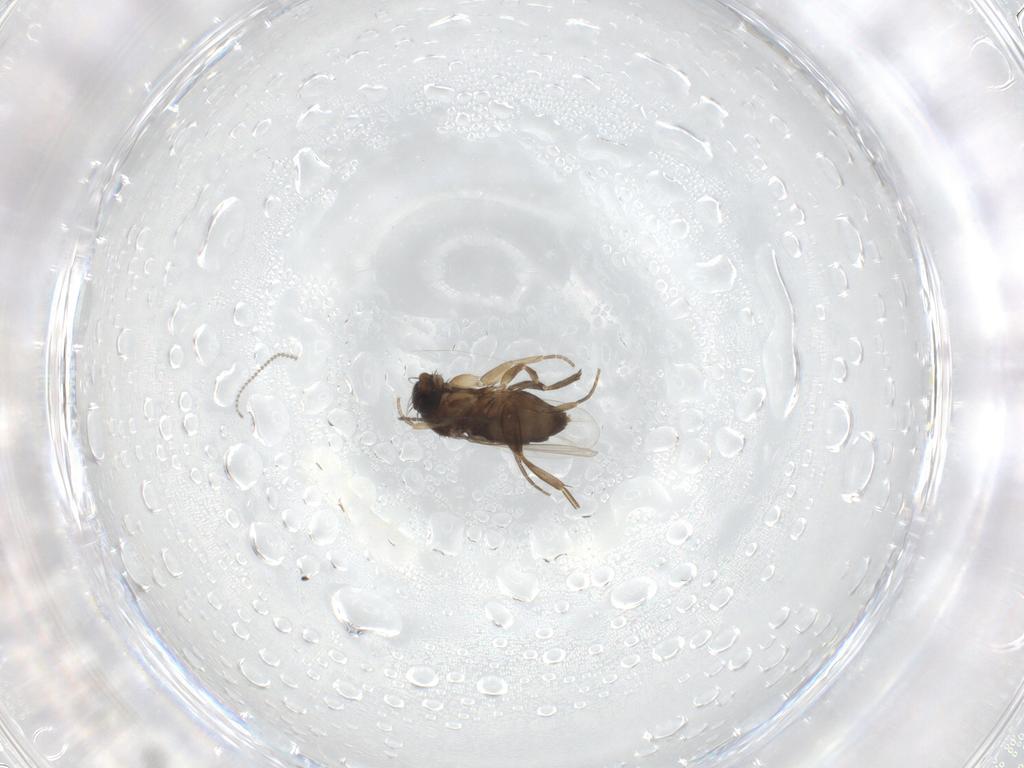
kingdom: Animalia
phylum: Arthropoda
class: Insecta
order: Diptera
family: Phoridae
